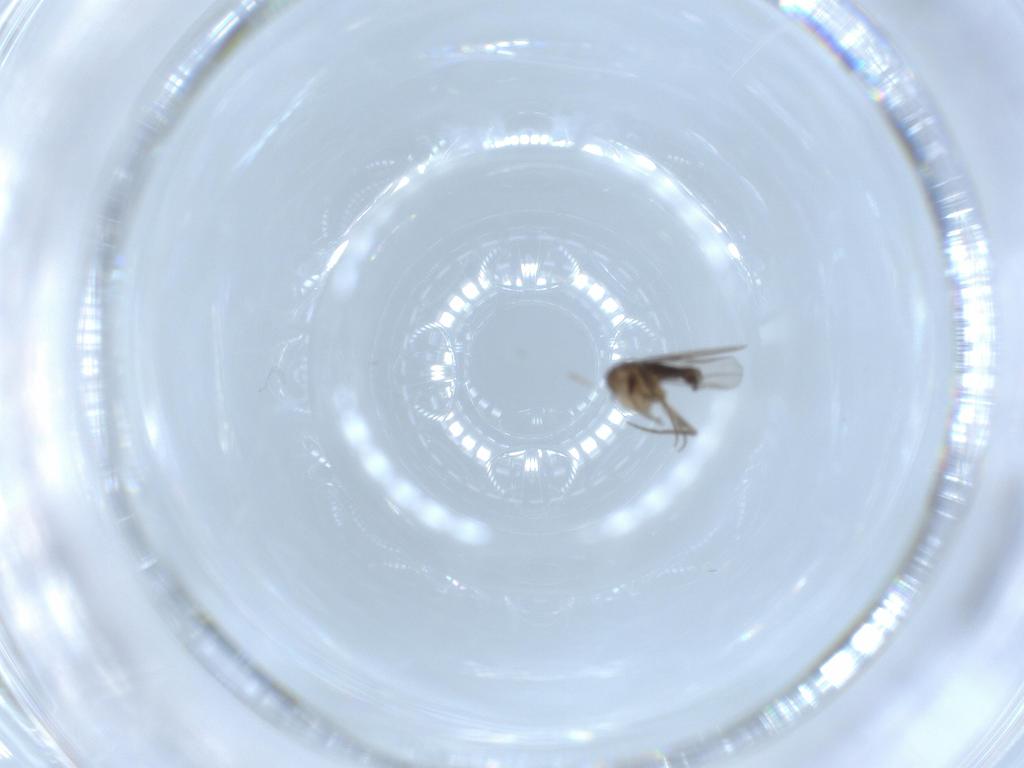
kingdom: Animalia
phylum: Arthropoda
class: Insecta
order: Diptera
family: Phoridae
